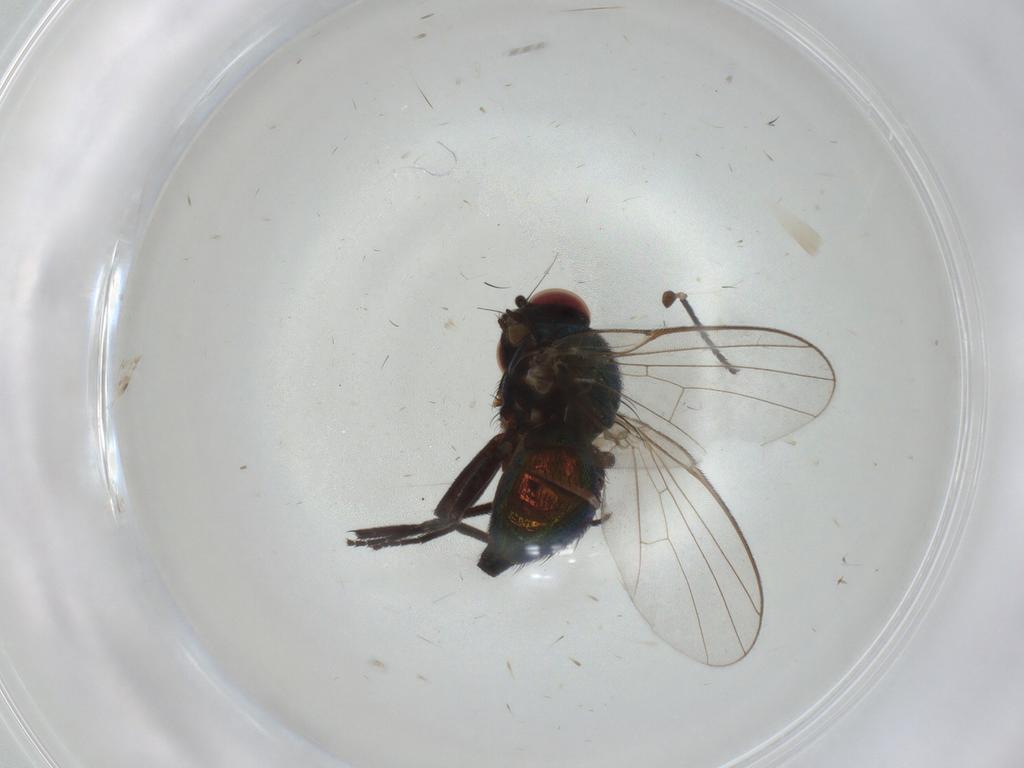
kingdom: Animalia
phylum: Arthropoda
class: Insecta
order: Diptera
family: Agromyzidae
